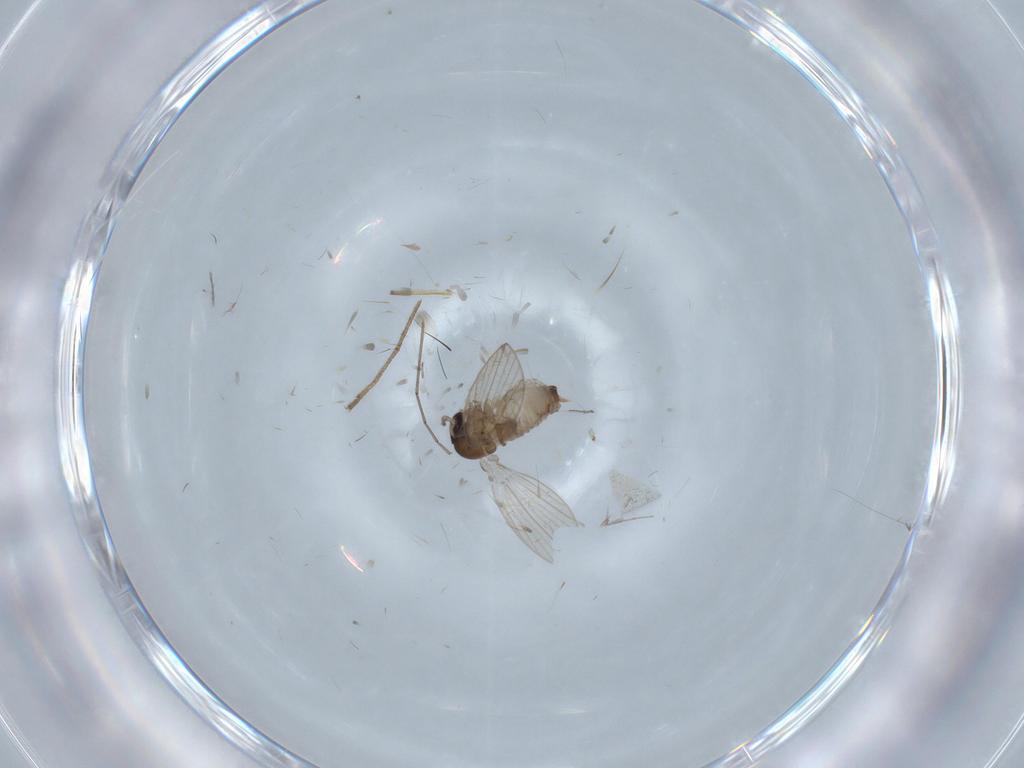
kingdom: Animalia
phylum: Arthropoda
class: Insecta
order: Diptera
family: Psychodidae
